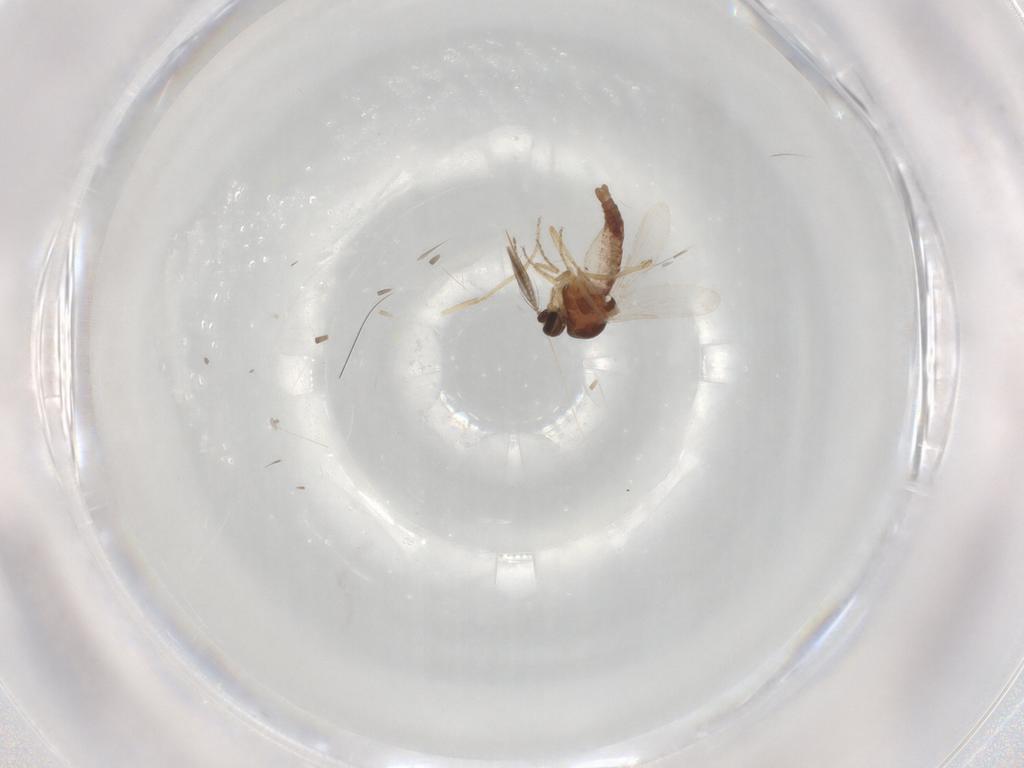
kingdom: Animalia
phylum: Arthropoda
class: Insecta
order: Diptera
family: Ceratopogonidae
